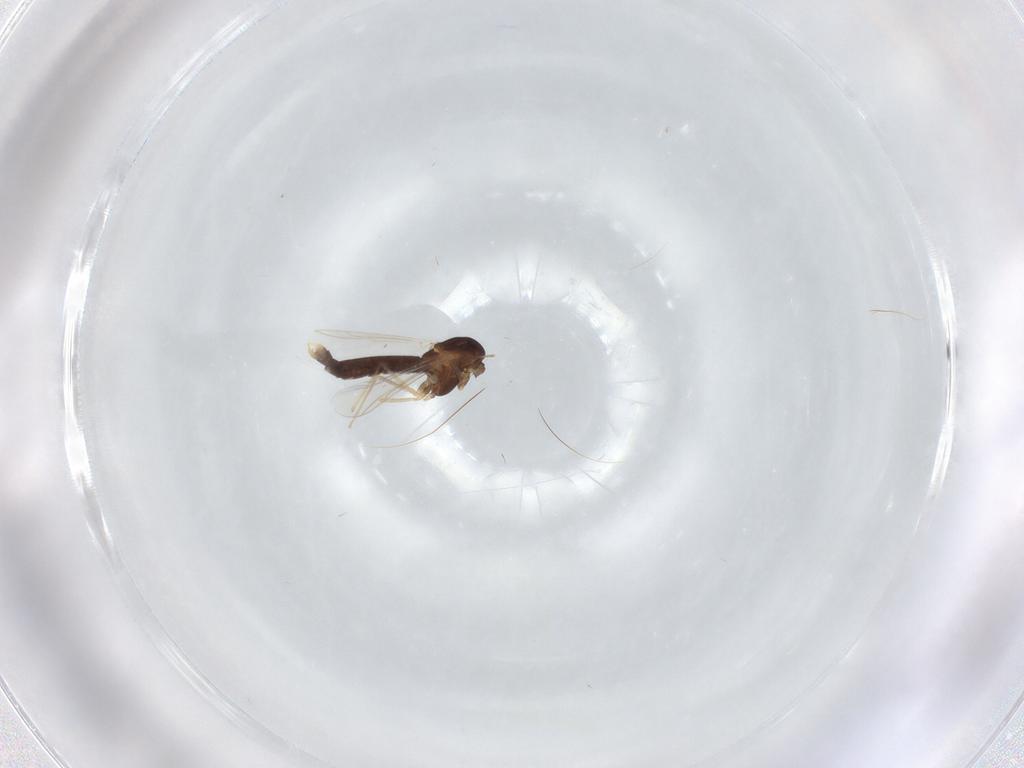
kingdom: Animalia
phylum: Arthropoda
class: Insecta
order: Diptera
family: Chironomidae
